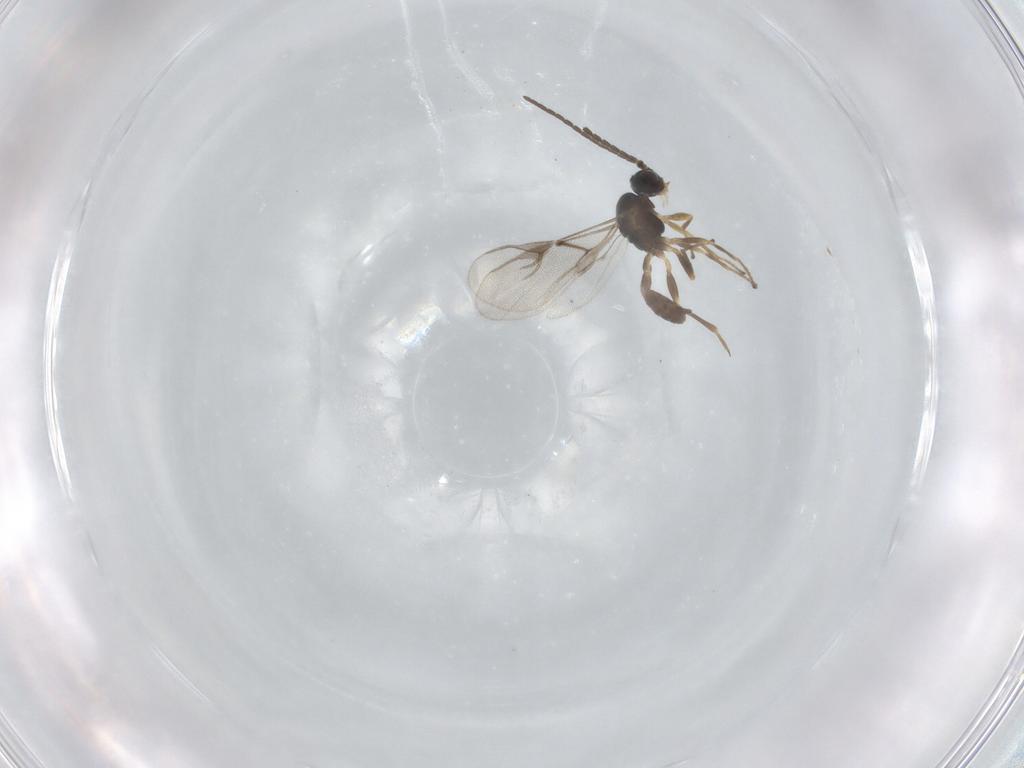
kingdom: Animalia
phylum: Arthropoda
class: Insecta
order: Hymenoptera
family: Braconidae
